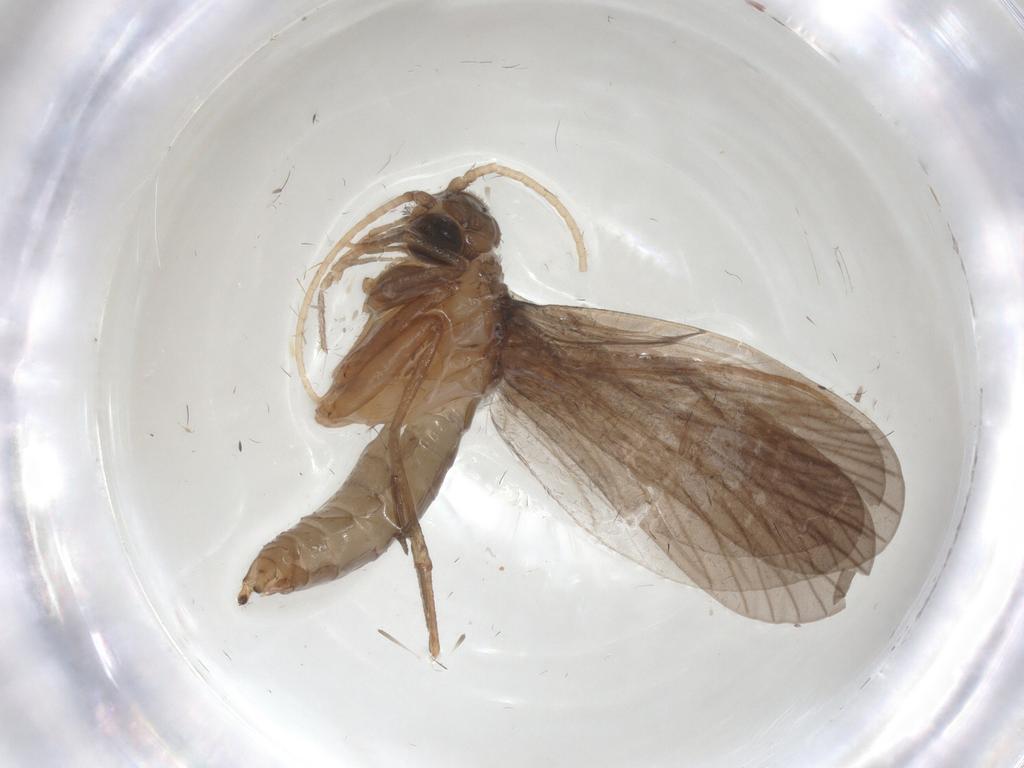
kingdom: Animalia
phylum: Arthropoda
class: Insecta
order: Trichoptera
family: Philopotamidae
